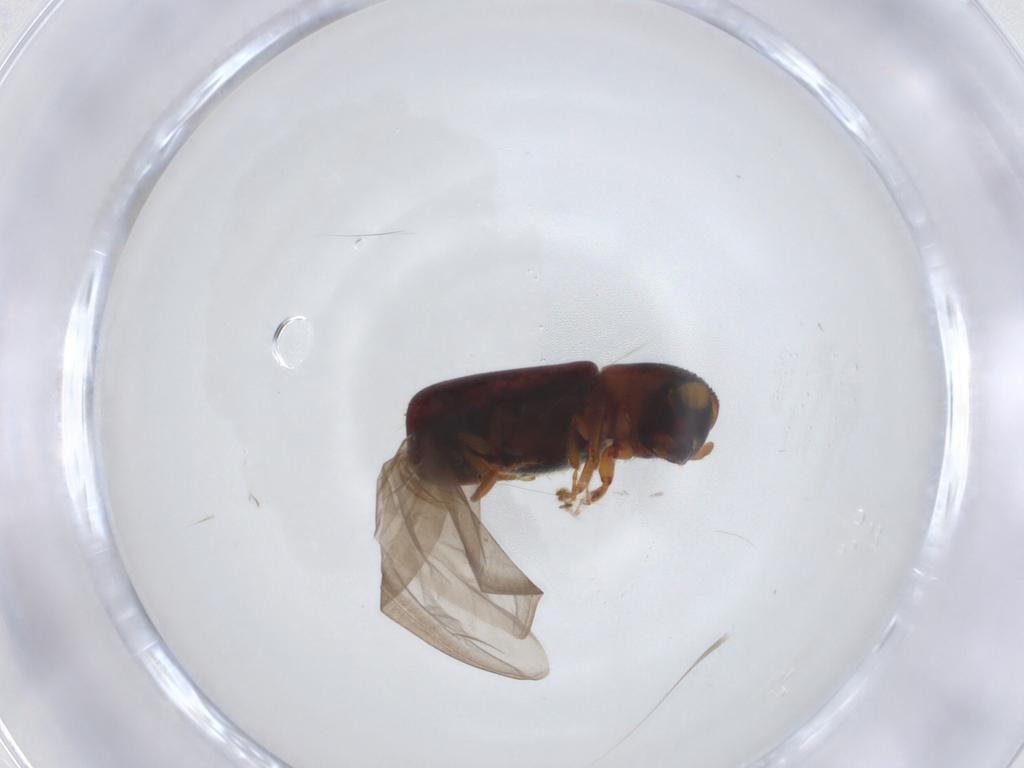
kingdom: Animalia
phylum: Arthropoda
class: Insecta
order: Coleoptera
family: Curculionidae
